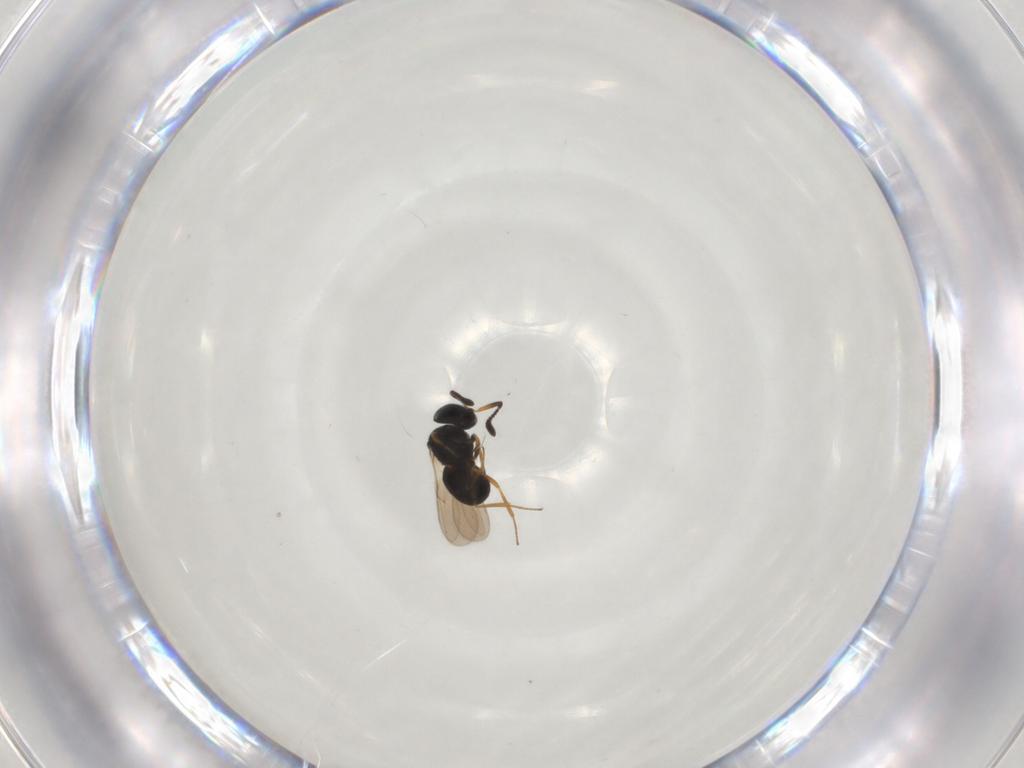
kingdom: Animalia
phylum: Arthropoda
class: Insecta
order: Hymenoptera
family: Scelionidae
